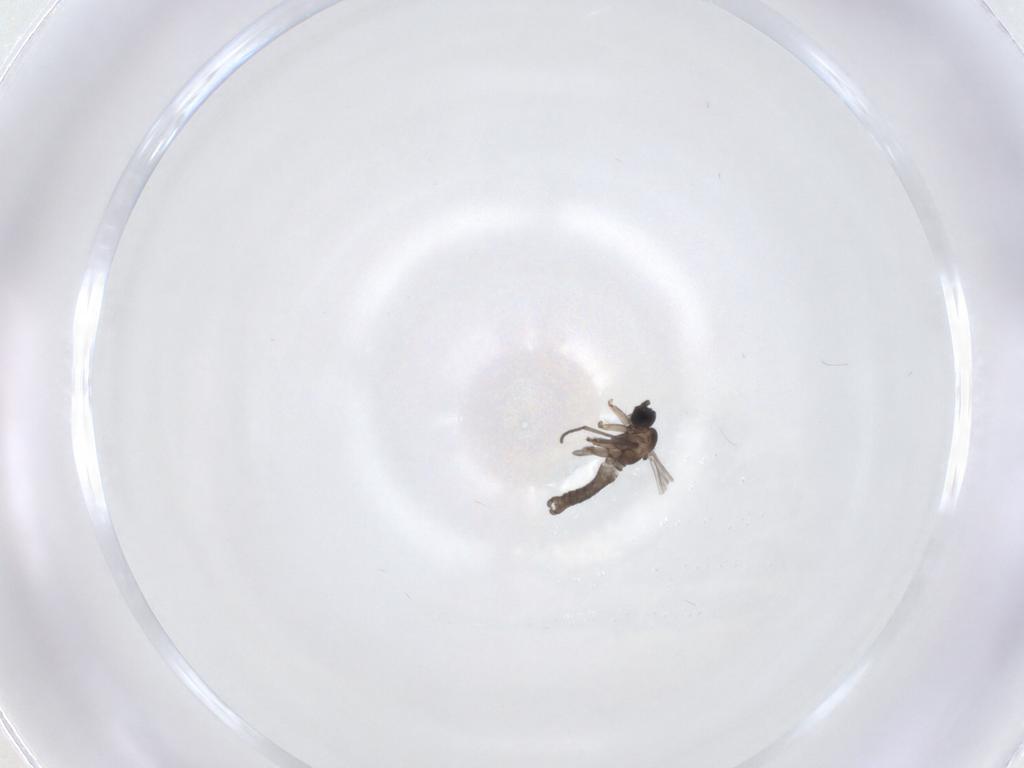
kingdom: Animalia
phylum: Arthropoda
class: Insecta
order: Diptera
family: Sciaridae
